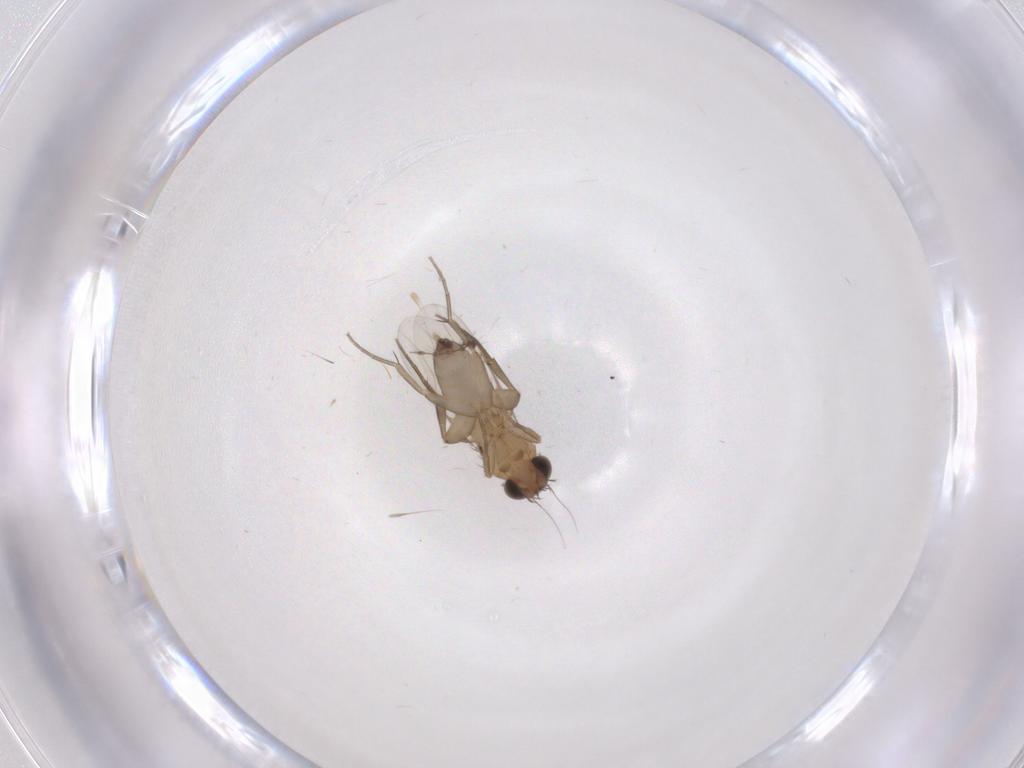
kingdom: Animalia
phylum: Arthropoda
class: Insecta
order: Diptera
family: Phoridae
